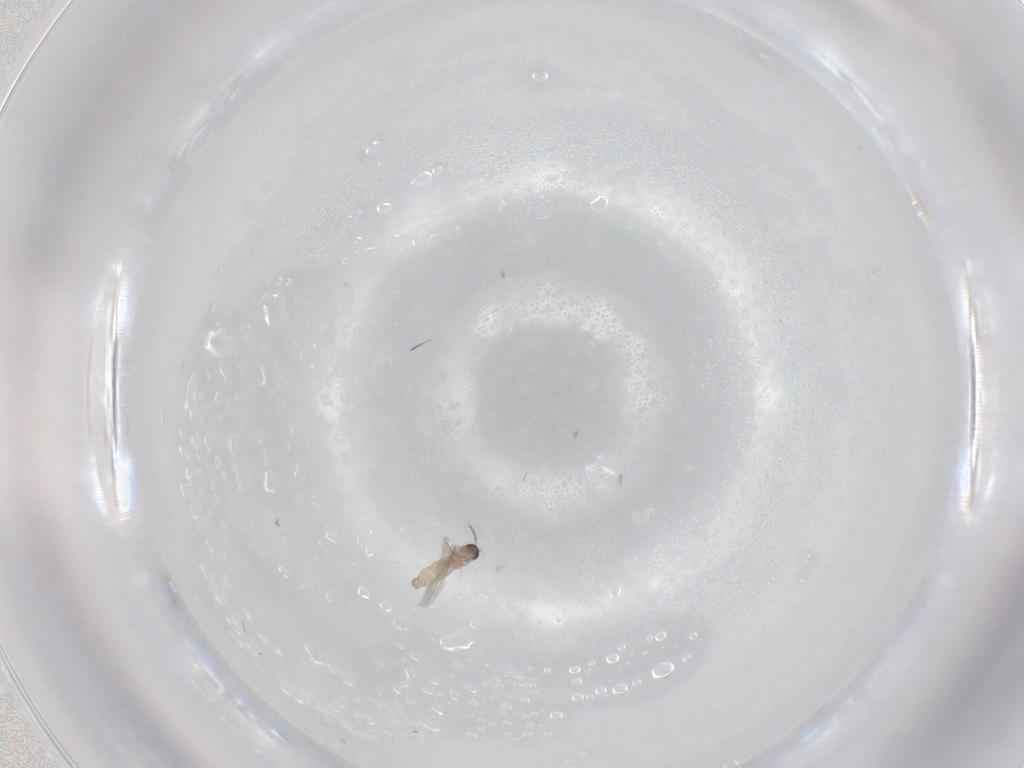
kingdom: Animalia
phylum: Arthropoda
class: Insecta
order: Diptera
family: Cecidomyiidae
